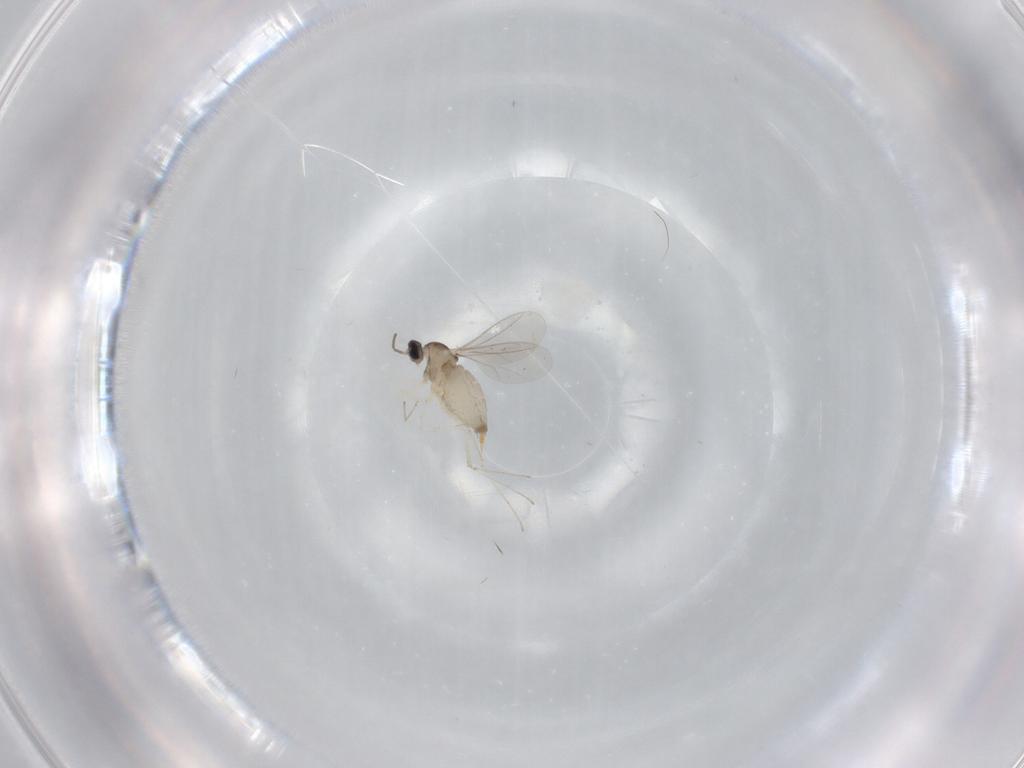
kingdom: Animalia
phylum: Arthropoda
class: Insecta
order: Diptera
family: Cecidomyiidae
